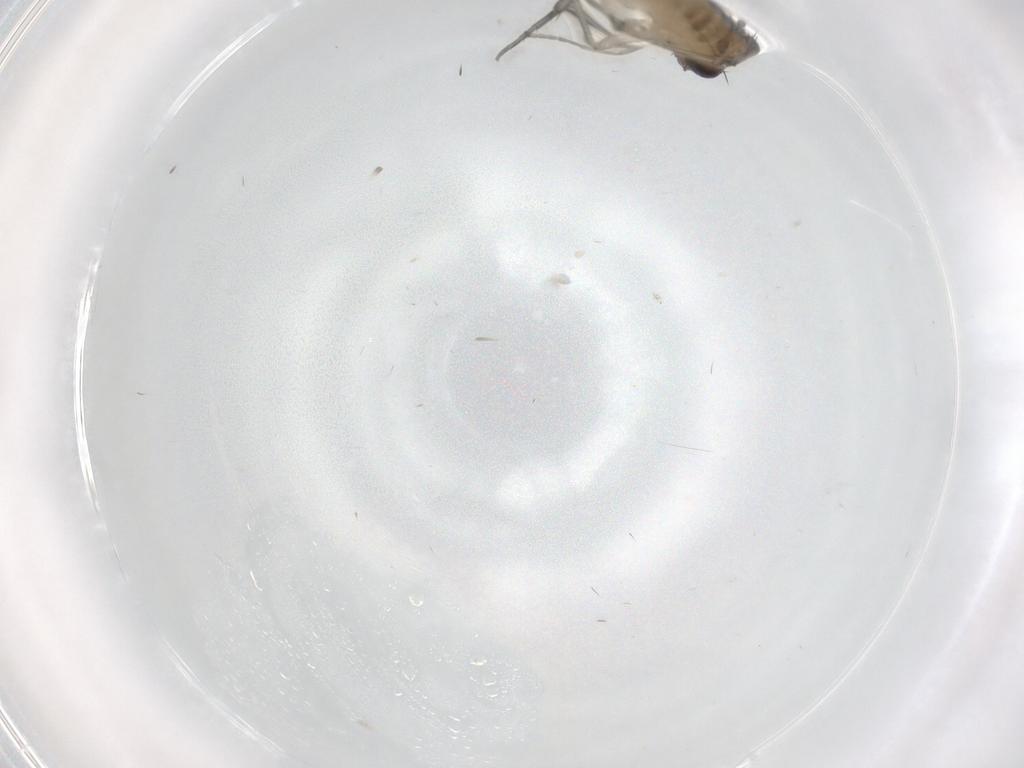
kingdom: Animalia
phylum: Arthropoda
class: Insecta
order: Diptera
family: Phoridae
